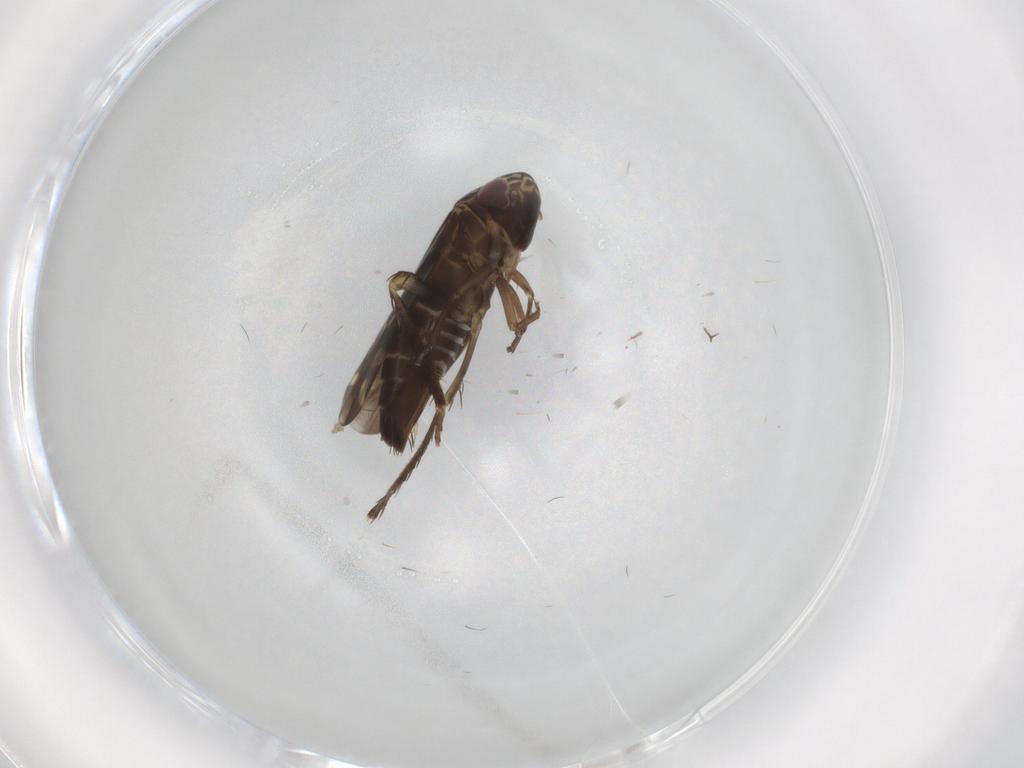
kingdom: Animalia
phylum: Arthropoda
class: Insecta
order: Hemiptera
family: Cicadellidae
